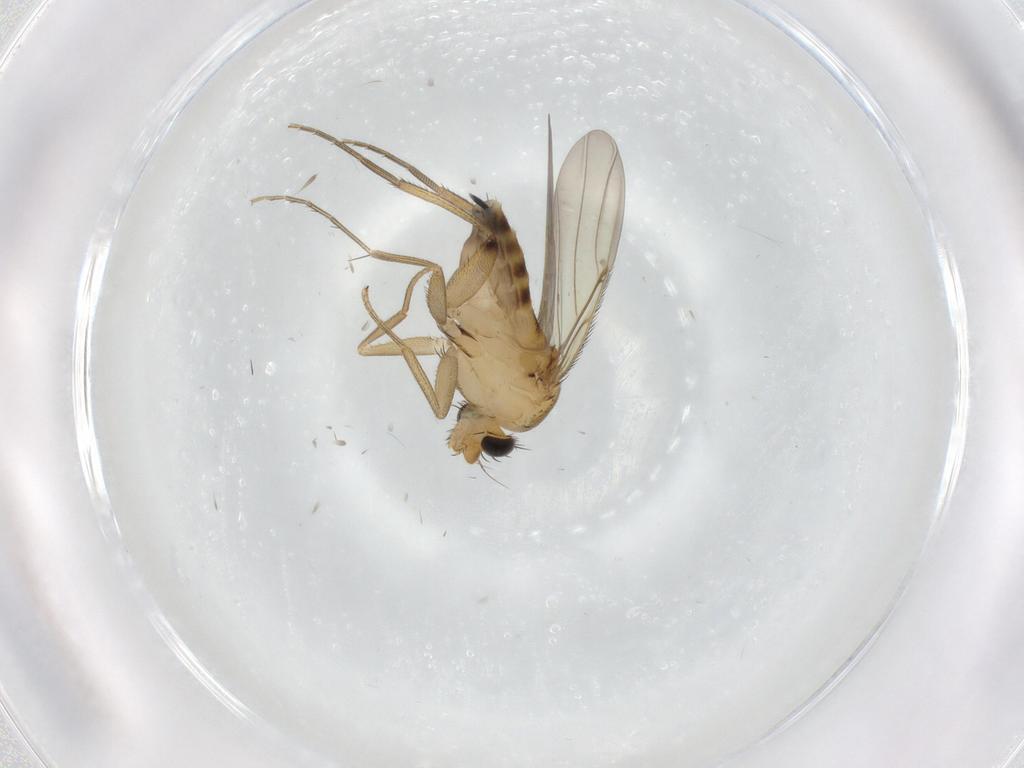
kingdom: Animalia
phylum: Arthropoda
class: Insecta
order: Diptera
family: Phoridae
